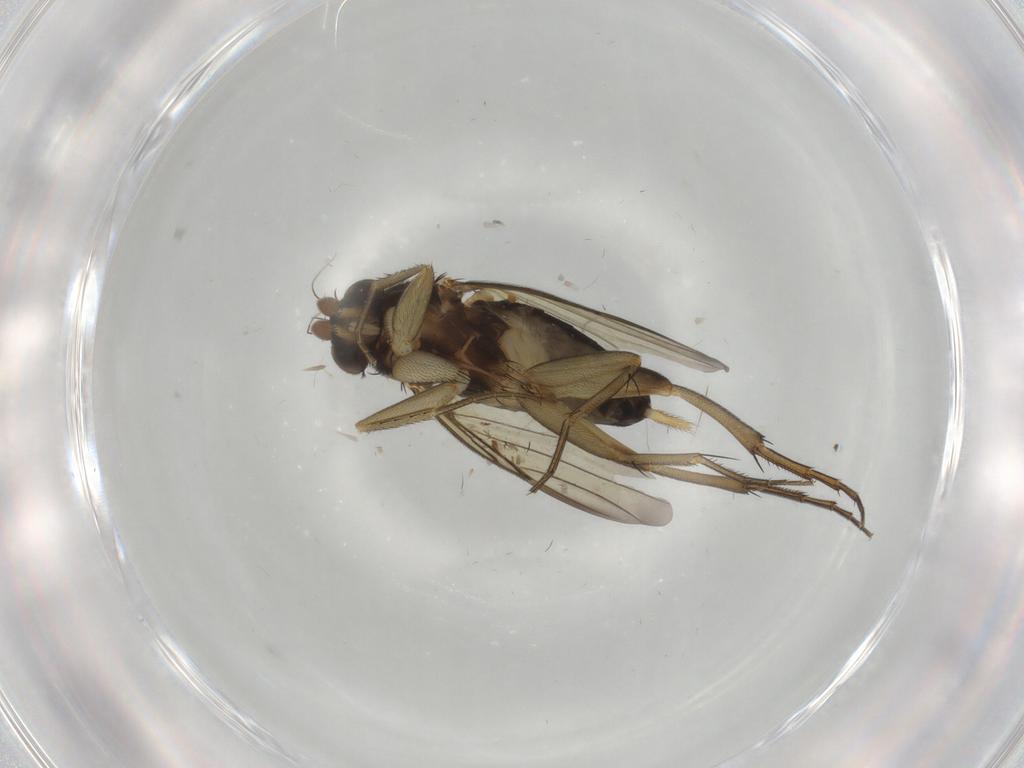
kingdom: Animalia
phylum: Arthropoda
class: Insecta
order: Diptera
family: Phoridae
